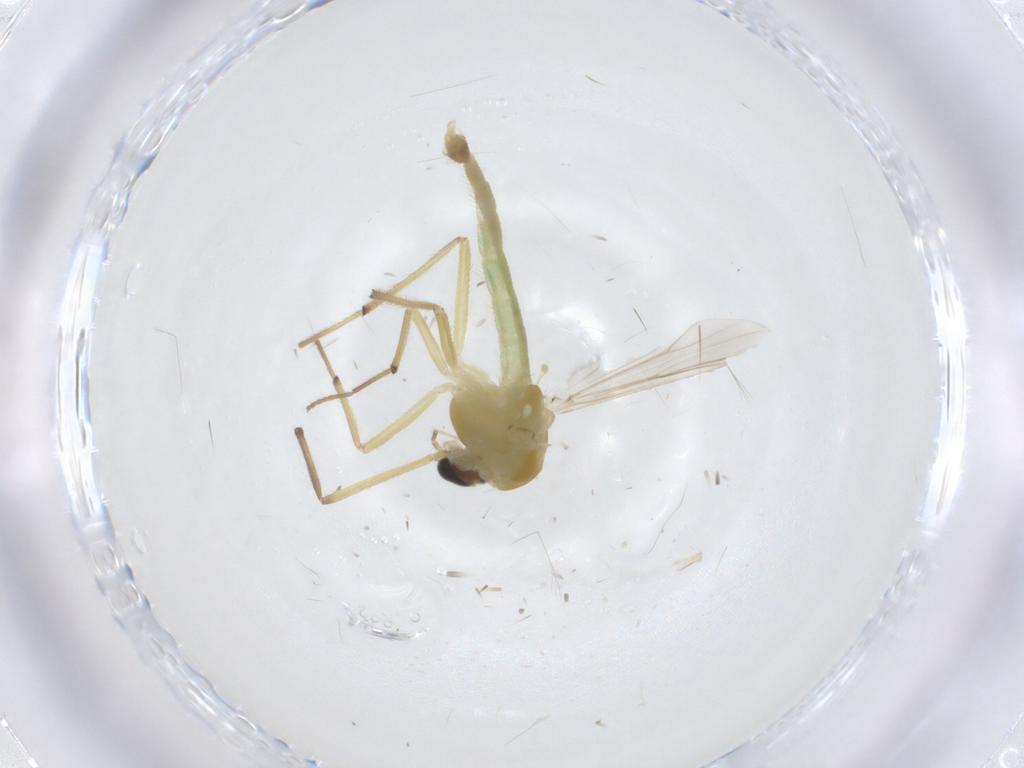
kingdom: Animalia
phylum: Arthropoda
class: Insecta
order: Diptera
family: Chironomidae
